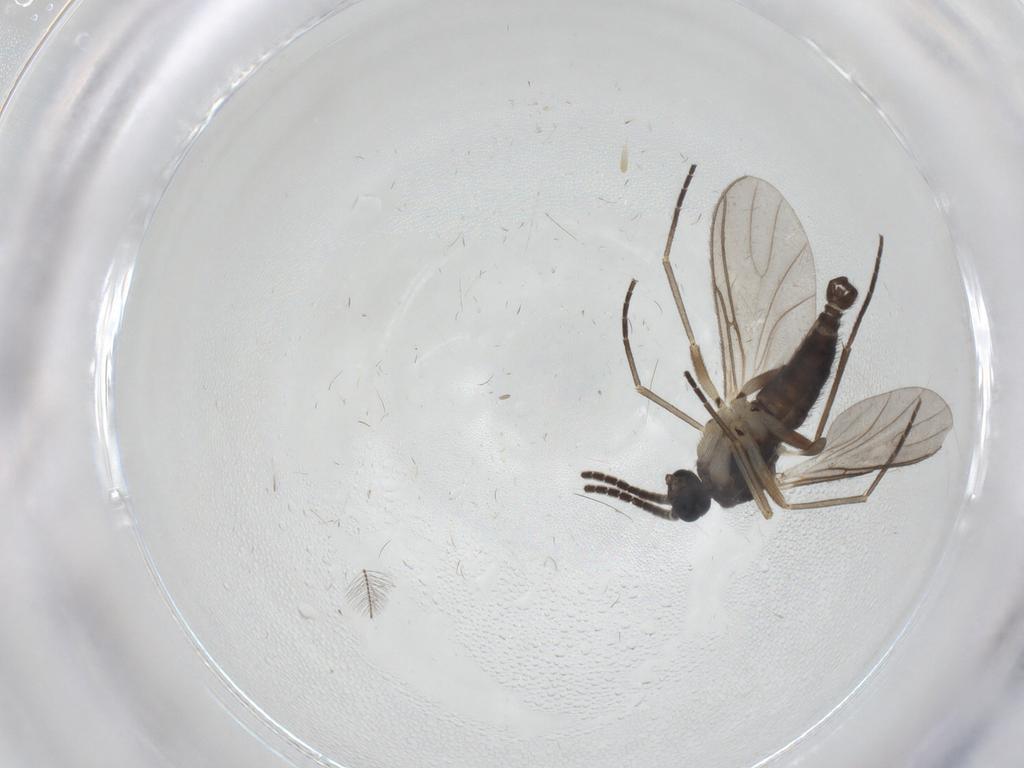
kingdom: Animalia
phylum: Arthropoda
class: Insecta
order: Diptera
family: Sciaridae
